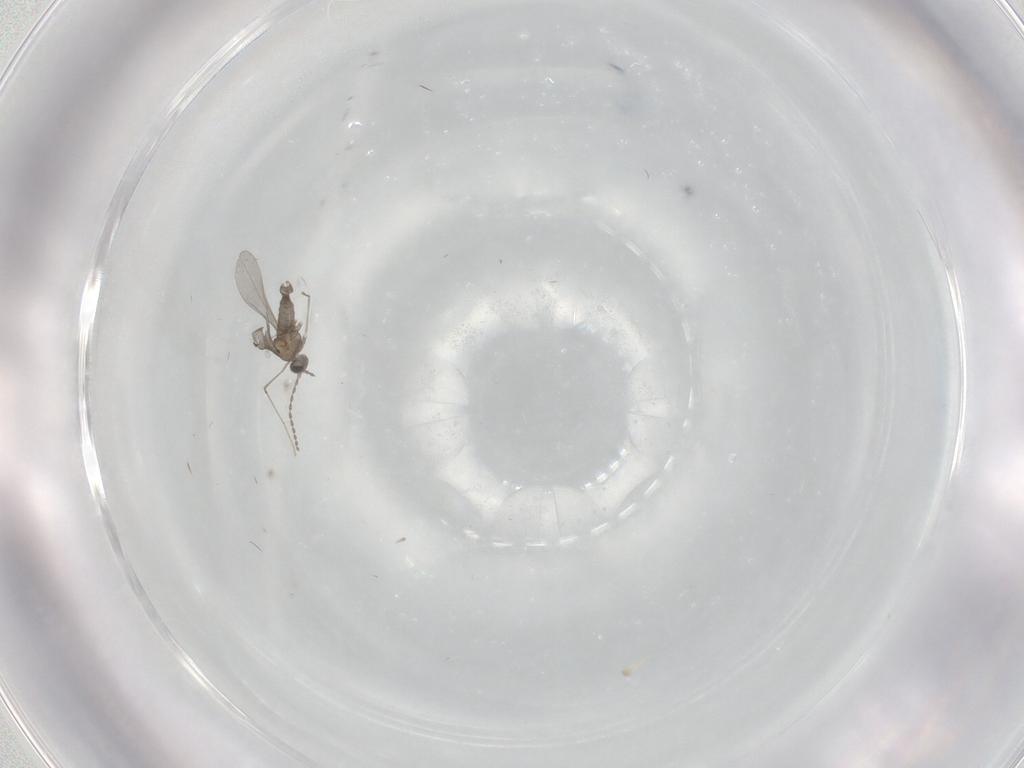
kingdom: Animalia
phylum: Arthropoda
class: Insecta
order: Diptera
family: Cecidomyiidae
